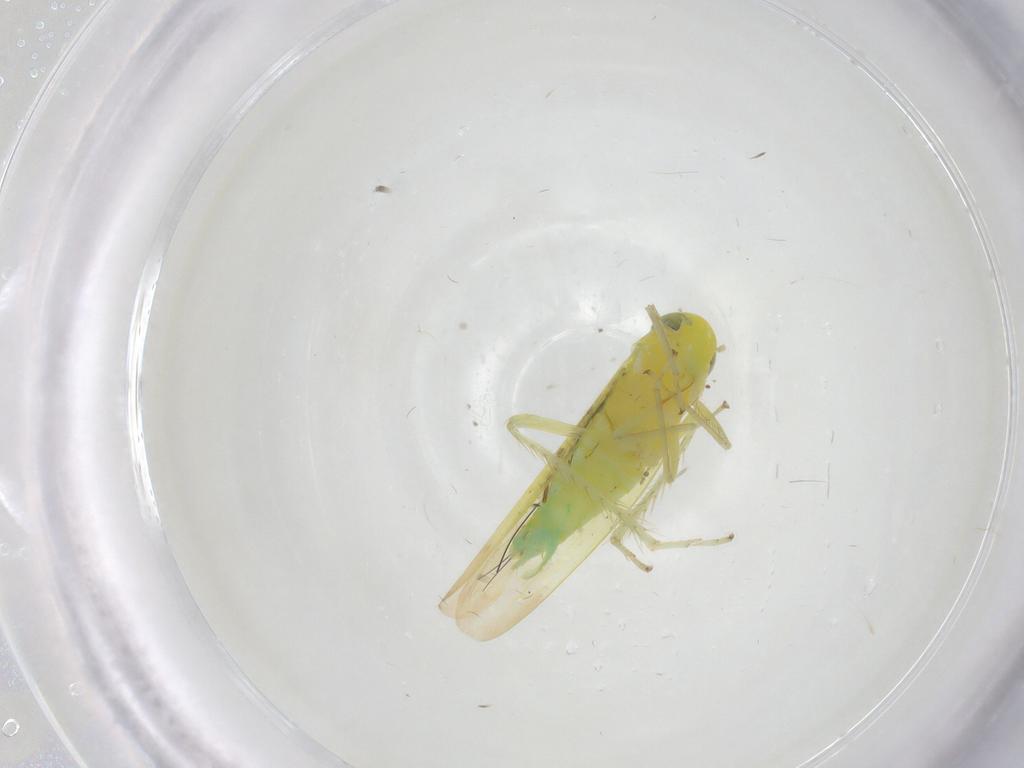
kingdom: Animalia
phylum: Arthropoda
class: Insecta
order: Hemiptera
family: Cicadellidae
